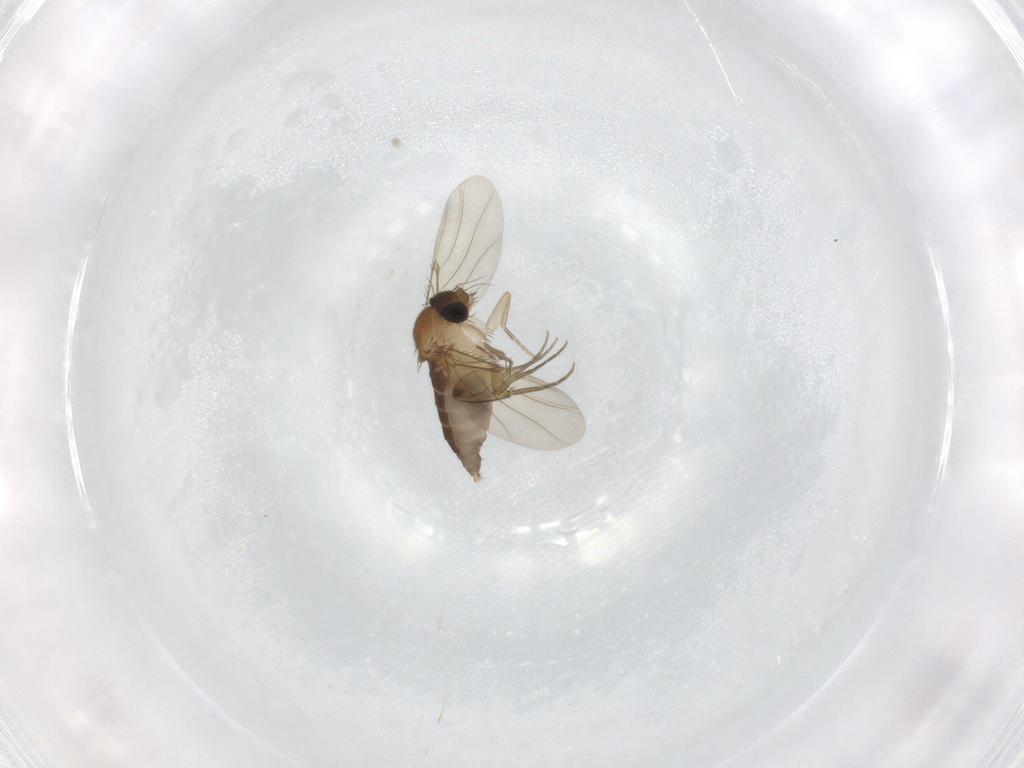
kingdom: Animalia
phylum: Arthropoda
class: Insecta
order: Diptera
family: Phoridae
